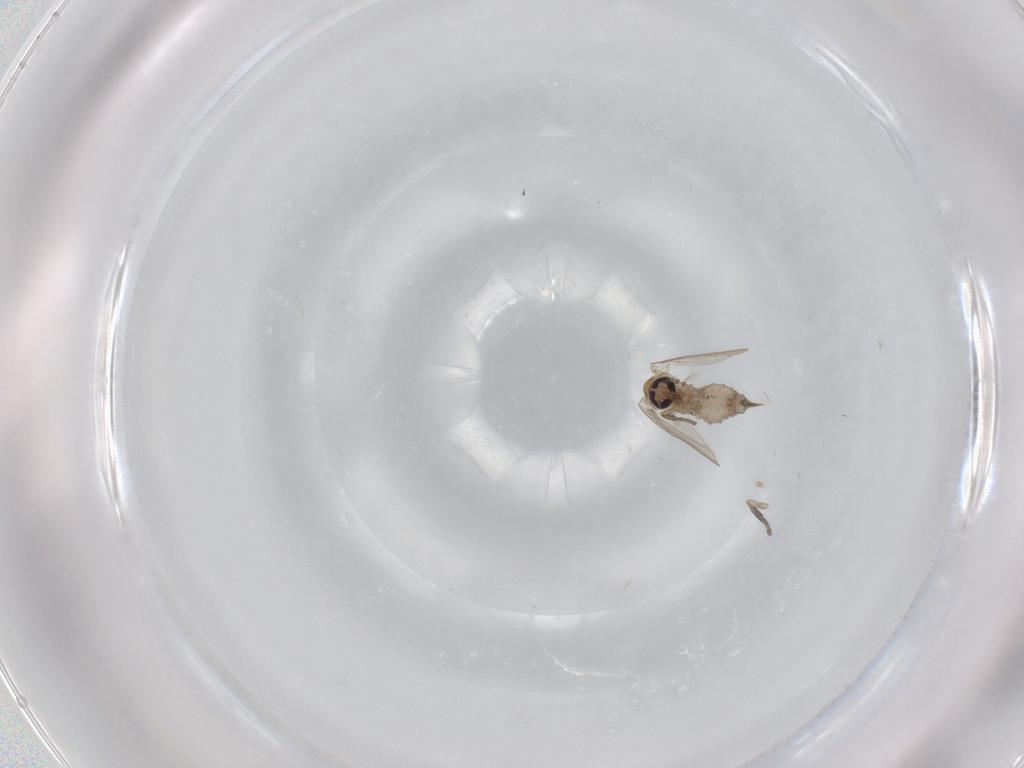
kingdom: Animalia
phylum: Arthropoda
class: Insecta
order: Diptera
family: Psychodidae
